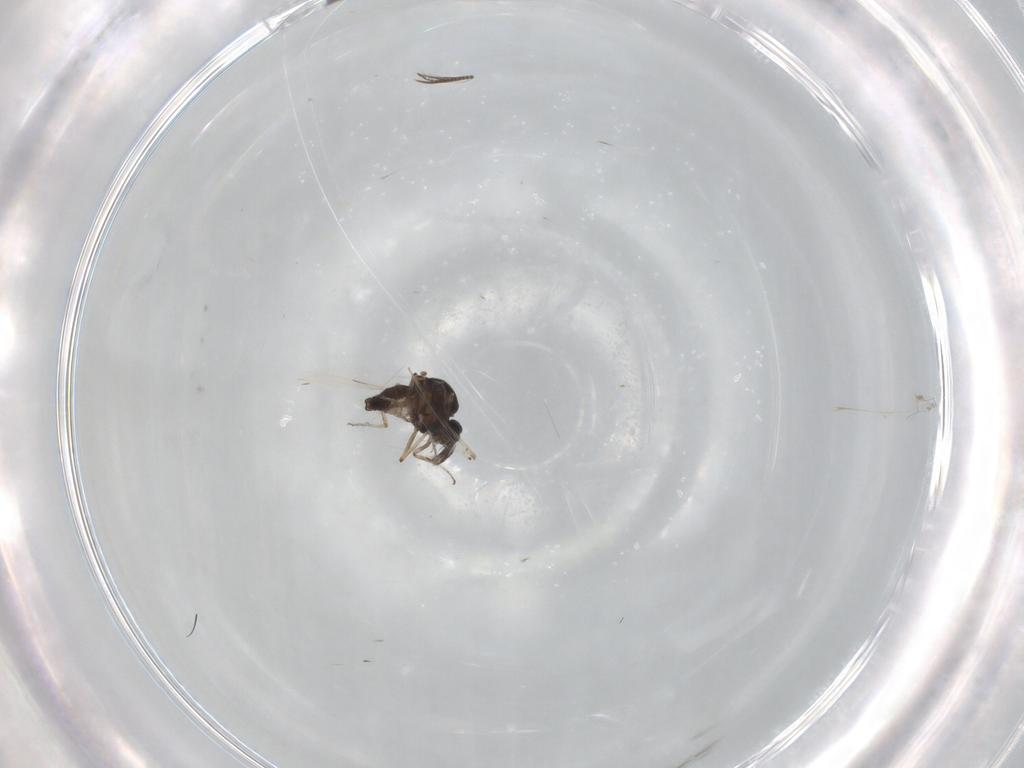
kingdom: Animalia
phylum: Arthropoda
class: Insecta
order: Diptera
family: Ceratopogonidae
